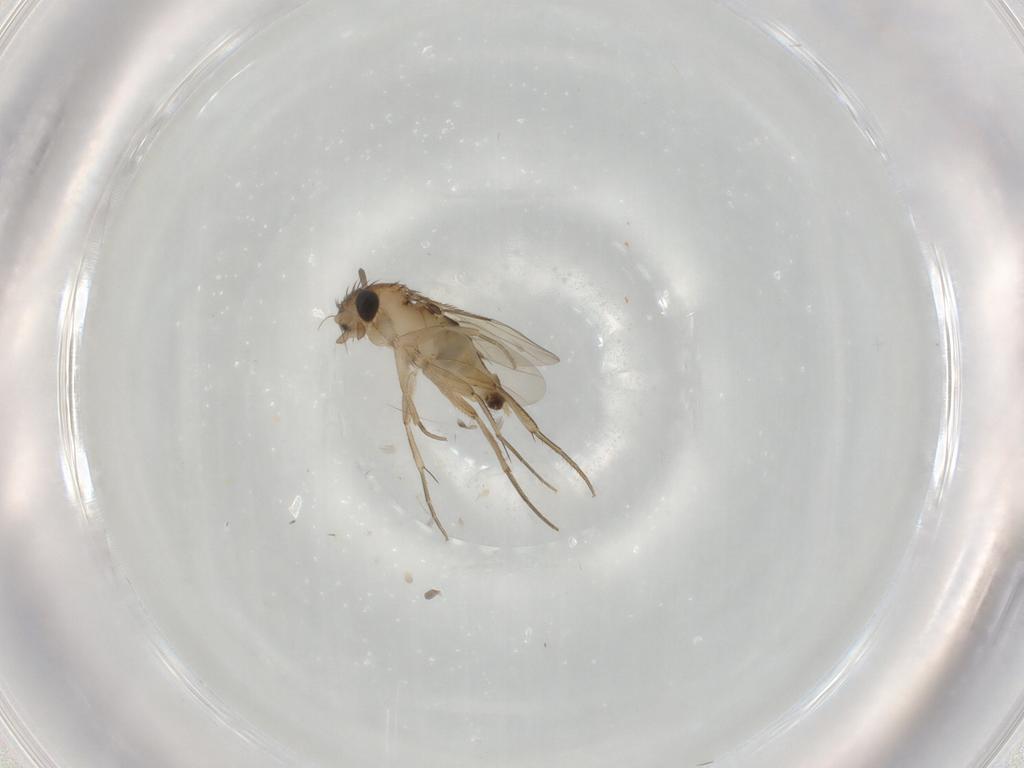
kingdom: Animalia
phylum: Arthropoda
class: Insecta
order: Diptera
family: Phoridae
